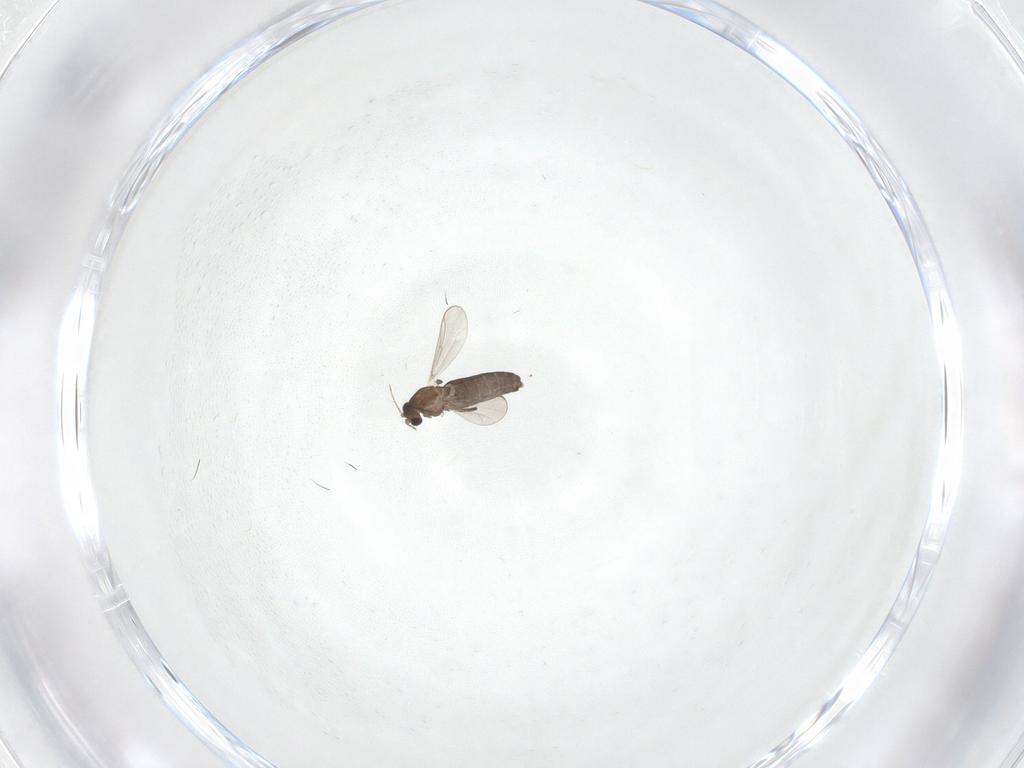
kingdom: Animalia
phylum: Arthropoda
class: Insecta
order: Diptera
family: Chironomidae
